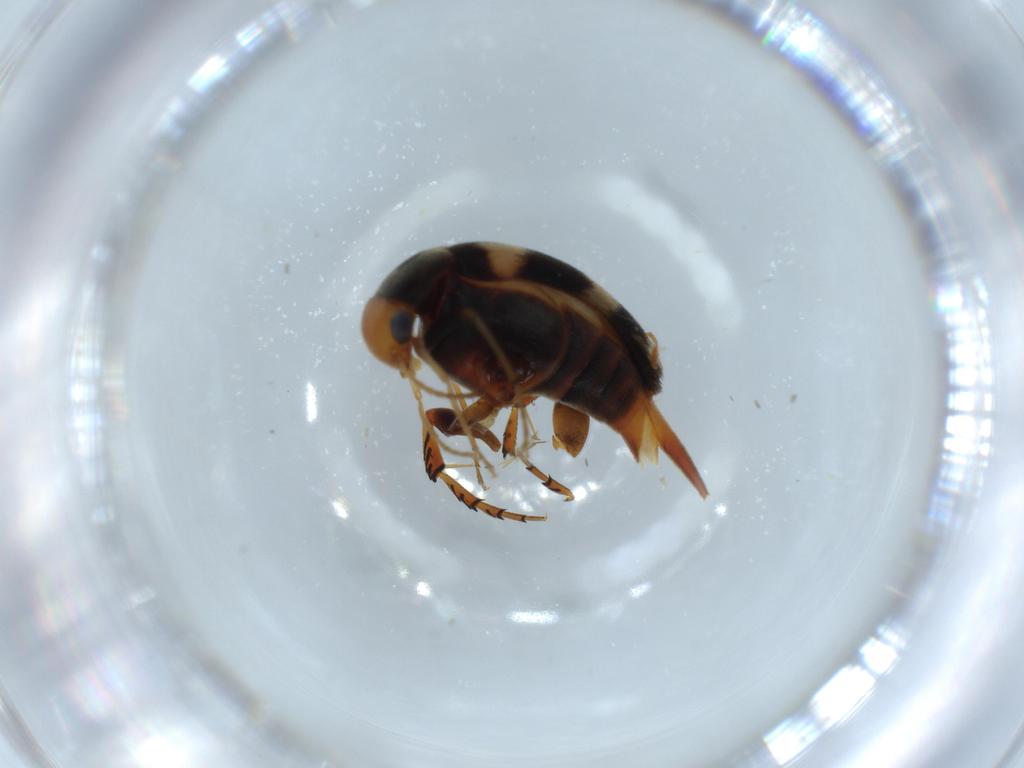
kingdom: Animalia
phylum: Arthropoda
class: Insecta
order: Coleoptera
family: Mordellidae
